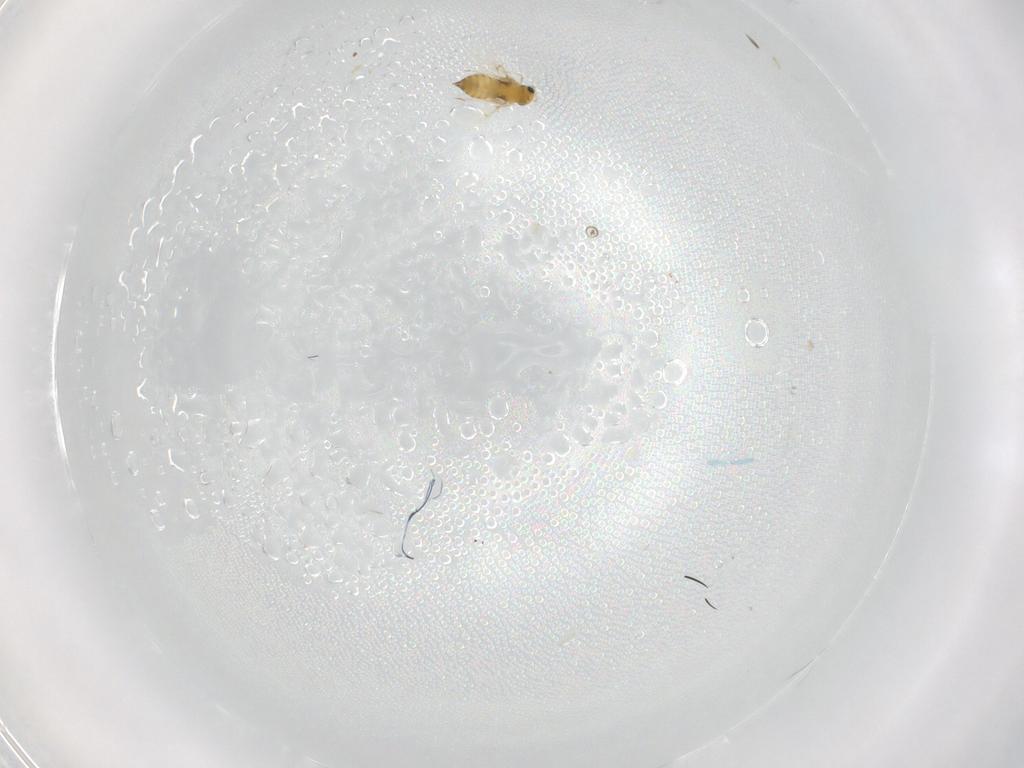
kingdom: Animalia
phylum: Arthropoda
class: Insecta
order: Hymenoptera
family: Trichogrammatidae
